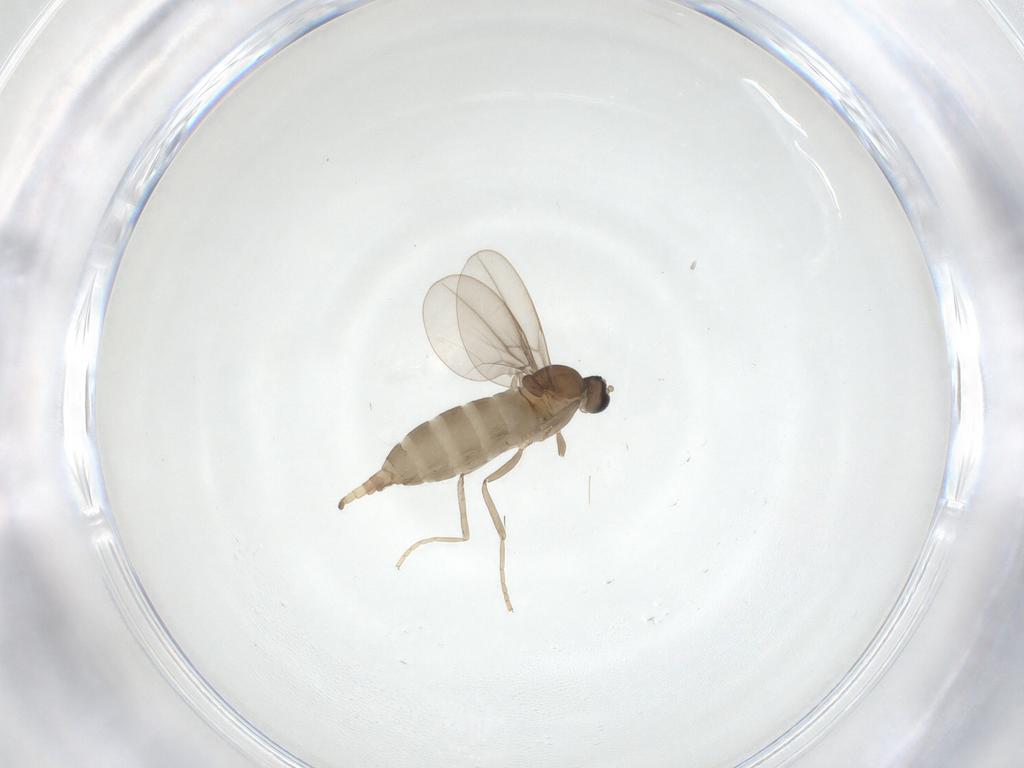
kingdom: Animalia
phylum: Arthropoda
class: Insecta
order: Diptera
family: Cecidomyiidae
